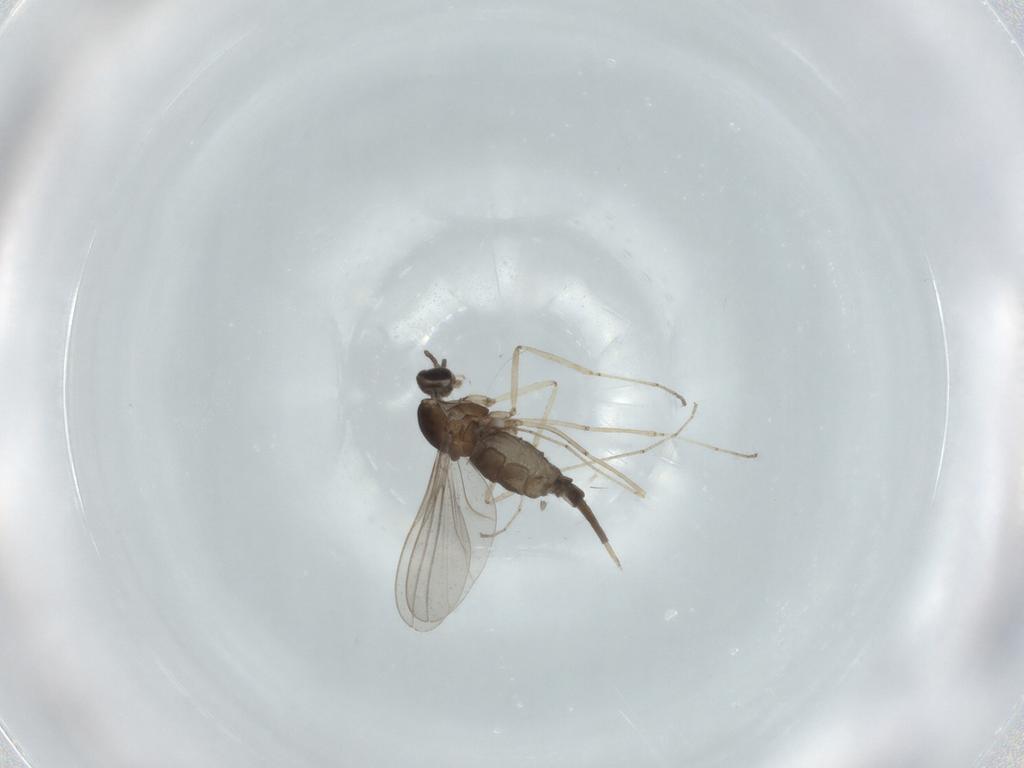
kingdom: Animalia
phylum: Arthropoda
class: Insecta
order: Diptera
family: Cecidomyiidae
